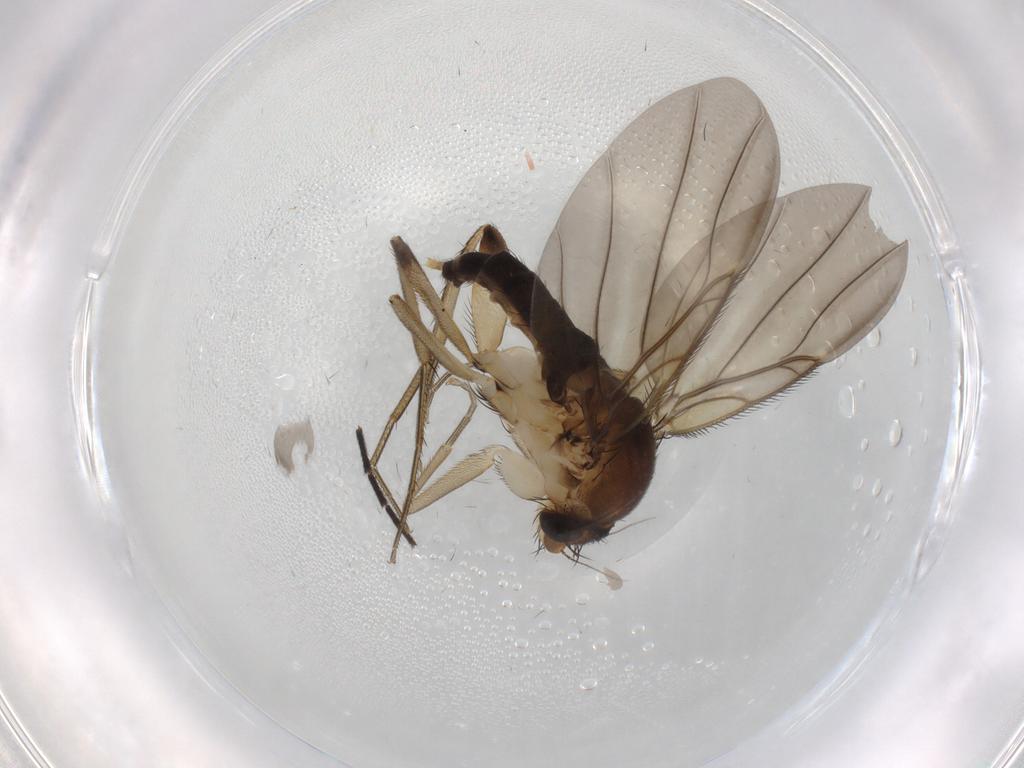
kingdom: Animalia
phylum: Arthropoda
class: Insecta
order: Diptera
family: Phoridae
